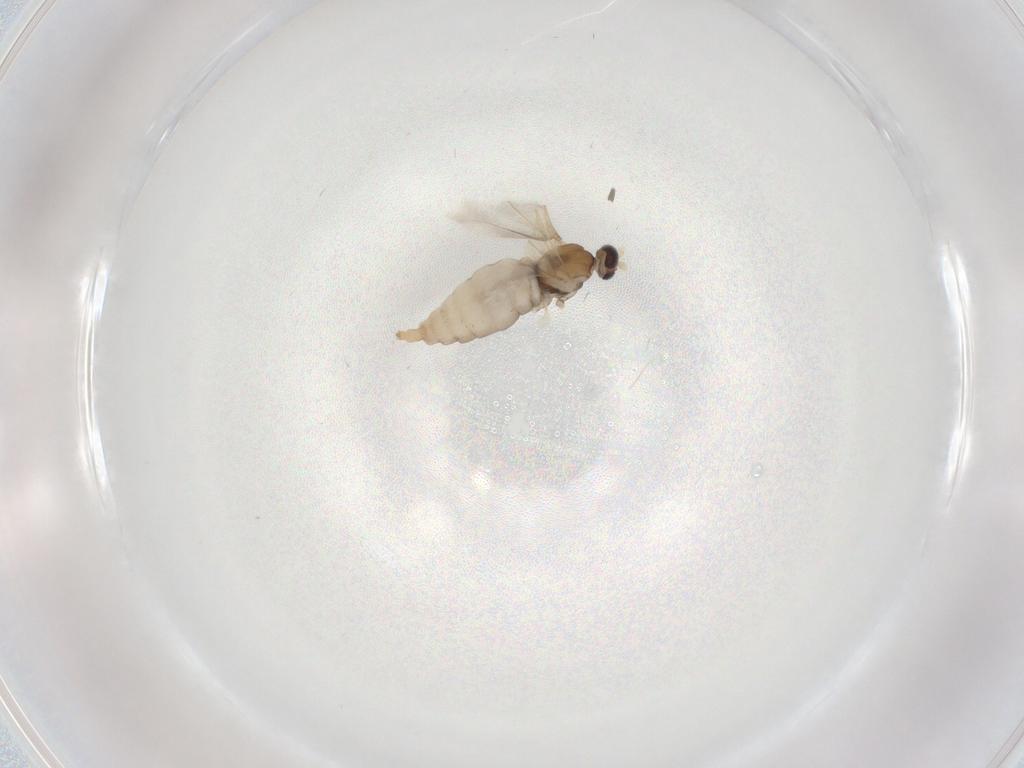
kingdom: Animalia
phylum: Arthropoda
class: Insecta
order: Diptera
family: Cecidomyiidae
